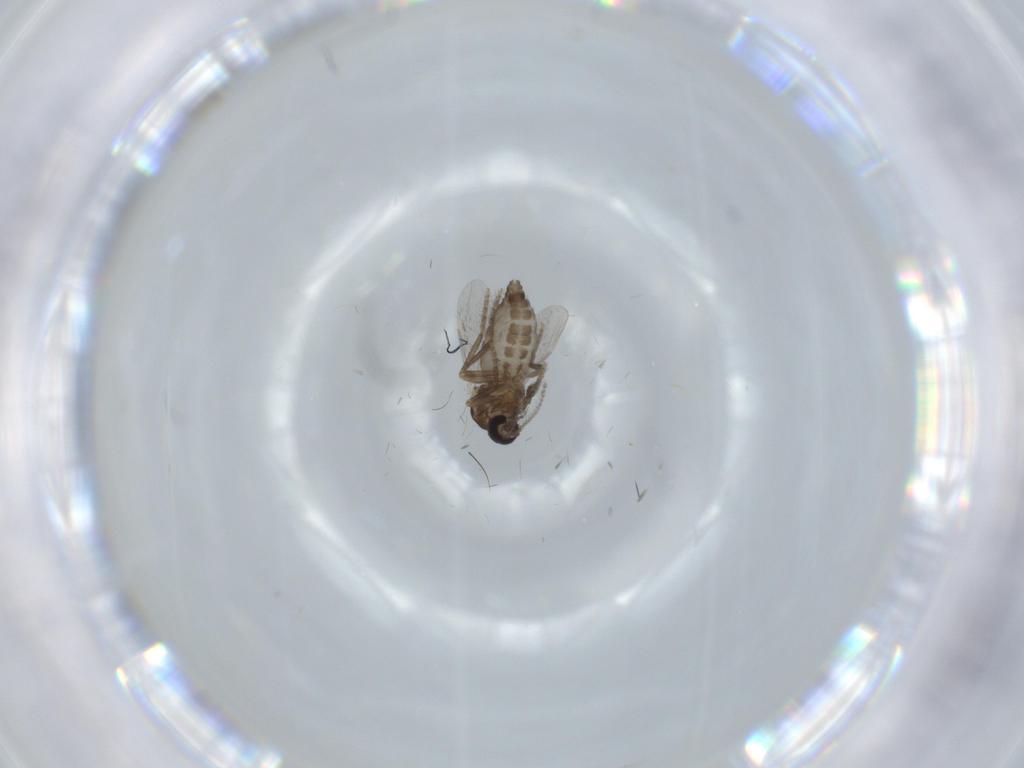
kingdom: Animalia
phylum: Arthropoda
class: Insecta
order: Diptera
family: Ceratopogonidae
